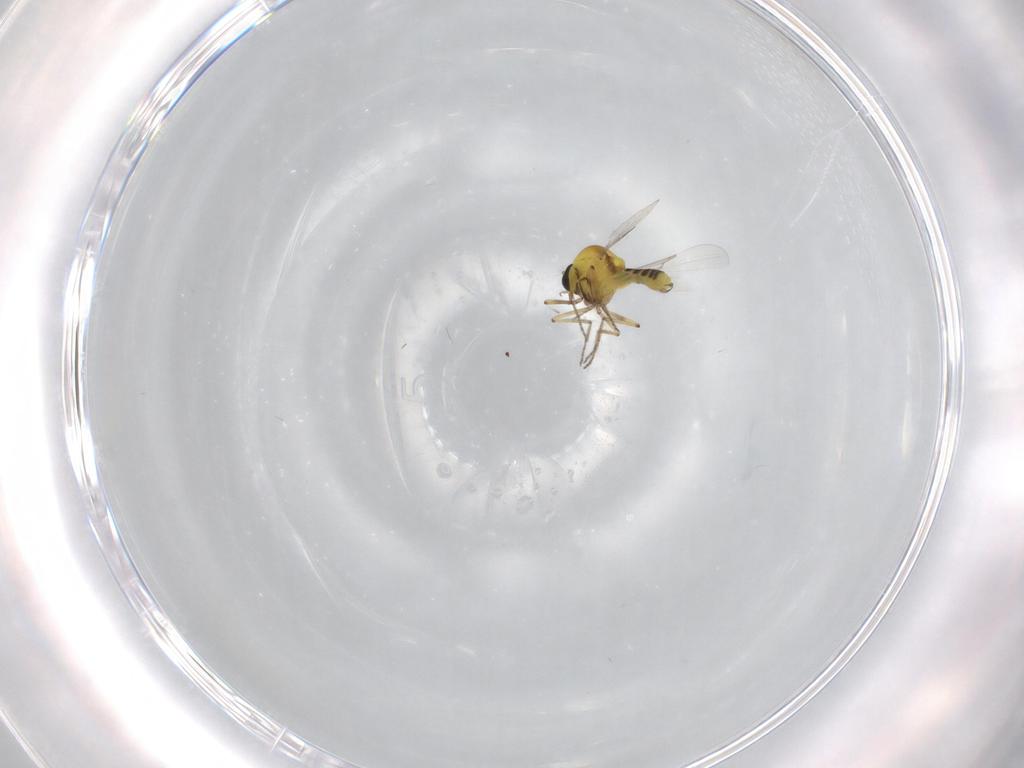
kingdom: Animalia
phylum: Arthropoda
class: Insecta
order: Diptera
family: Ceratopogonidae
